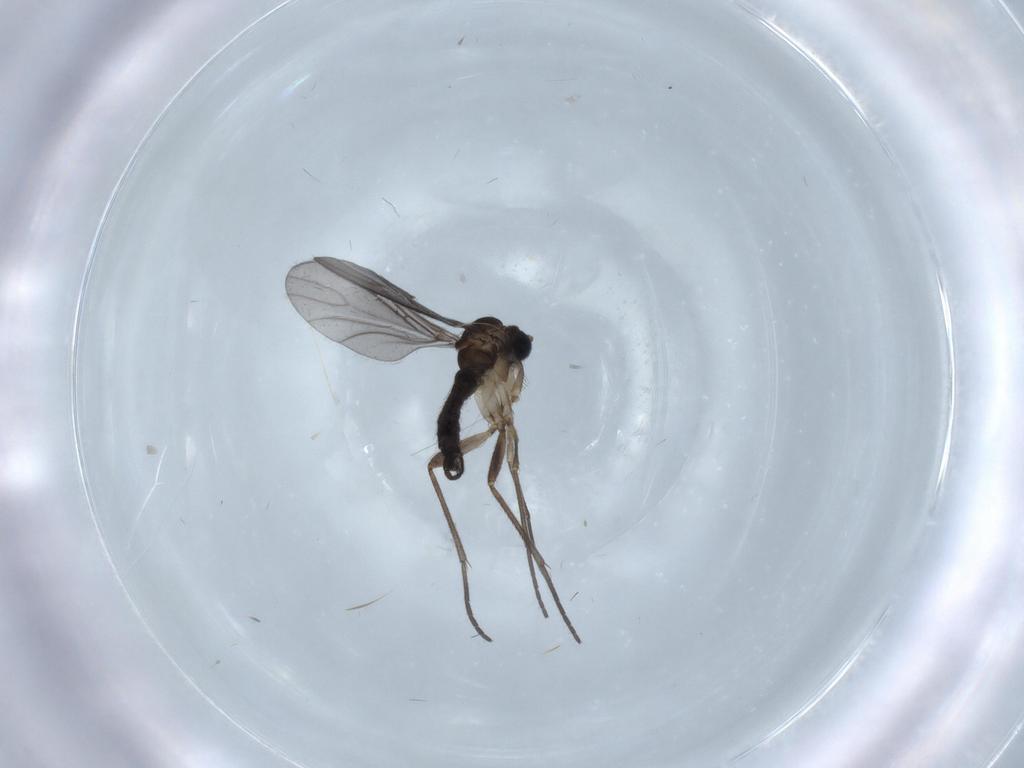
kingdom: Animalia
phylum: Arthropoda
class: Insecta
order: Diptera
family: Sciaridae
